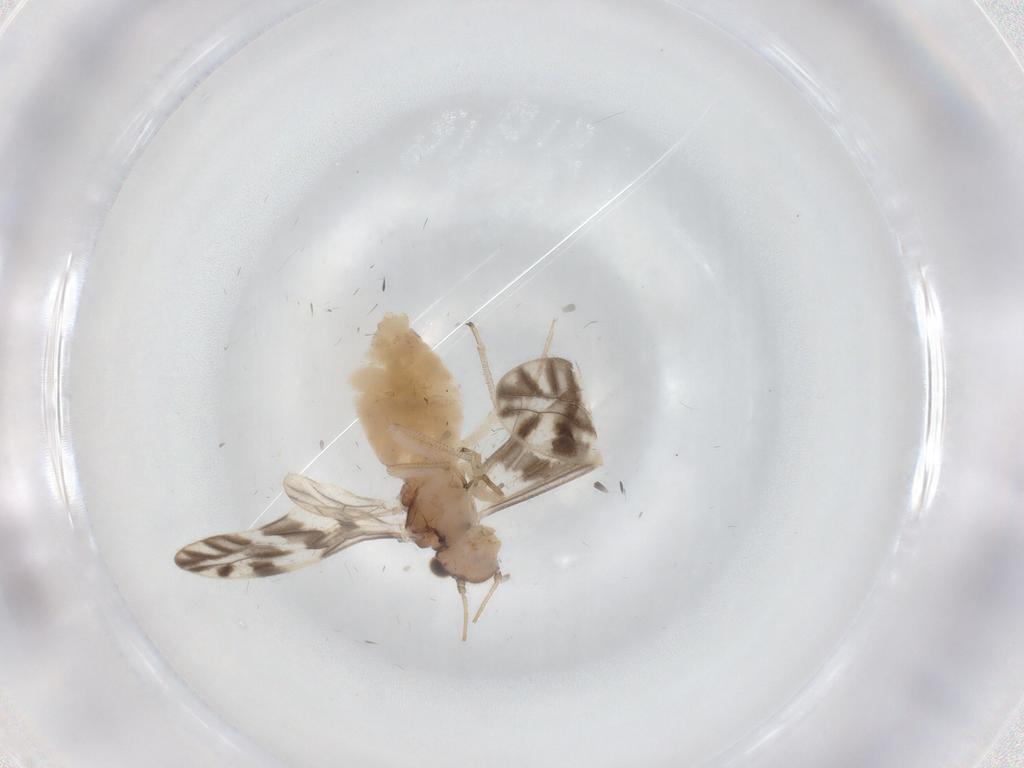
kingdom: Animalia
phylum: Arthropoda
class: Insecta
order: Psocodea
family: Caeciliusidae
